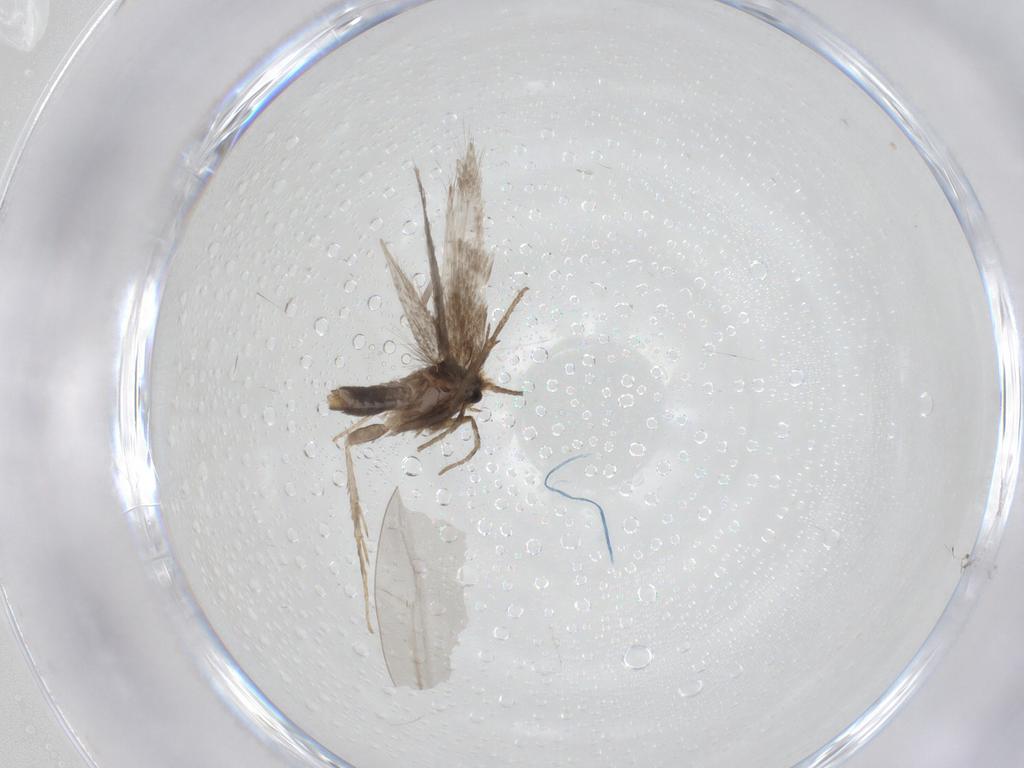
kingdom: Animalia
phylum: Arthropoda
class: Insecta
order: Lepidoptera
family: Nepticulidae
